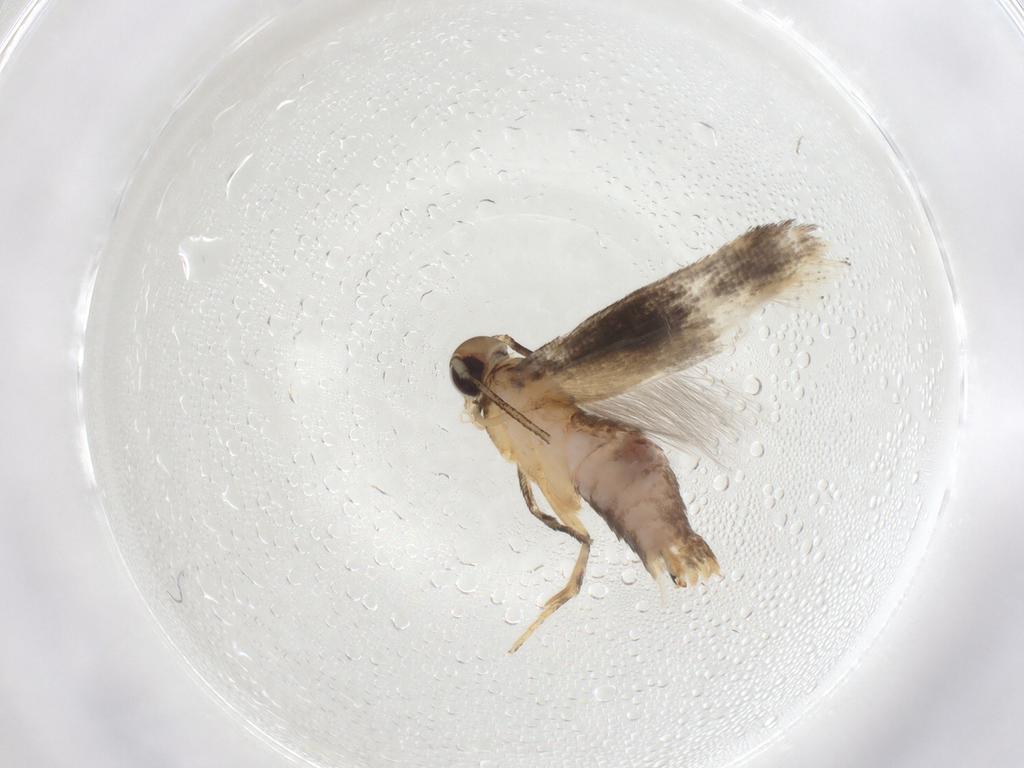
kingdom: Animalia
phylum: Arthropoda
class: Insecta
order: Lepidoptera
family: Gelechiidae
